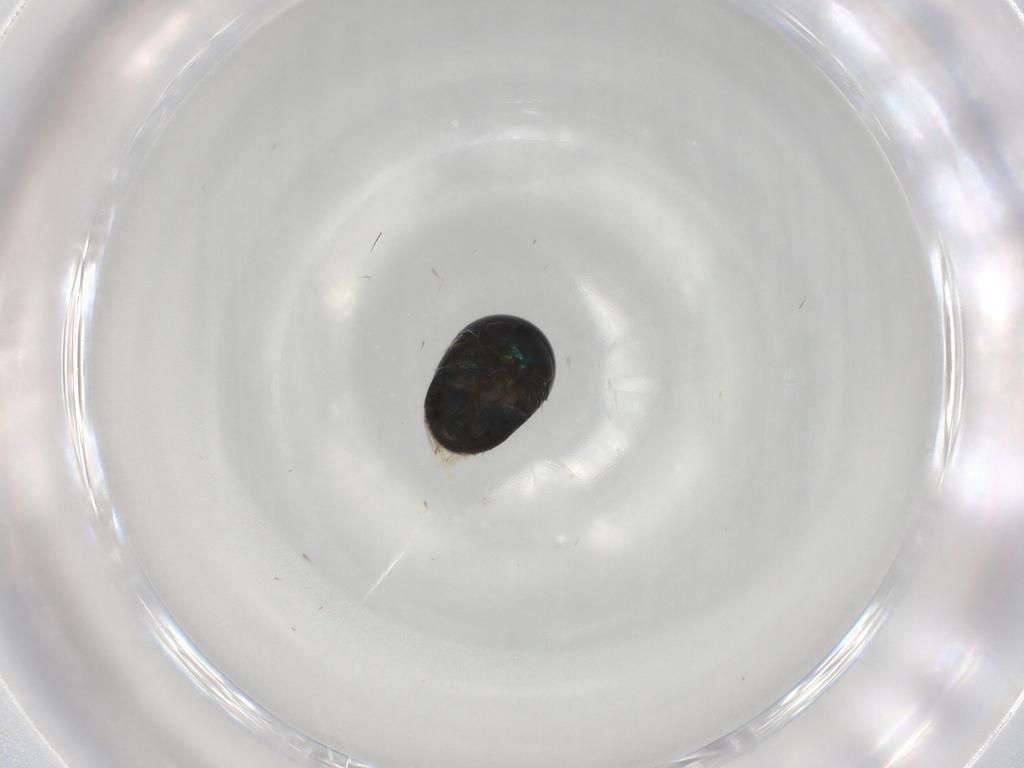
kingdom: Animalia
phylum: Arthropoda
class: Insecta
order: Coleoptera
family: Cybocephalidae
